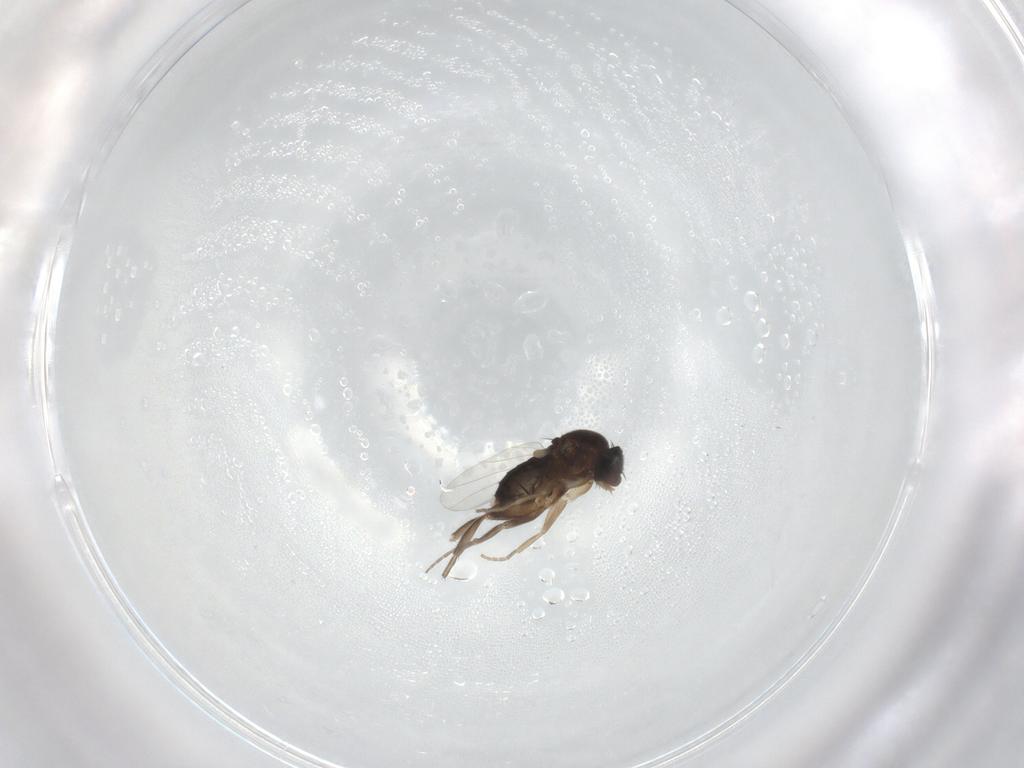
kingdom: Animalia
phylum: Arthropoda
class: Insecta
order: Diptera
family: Phoridae
